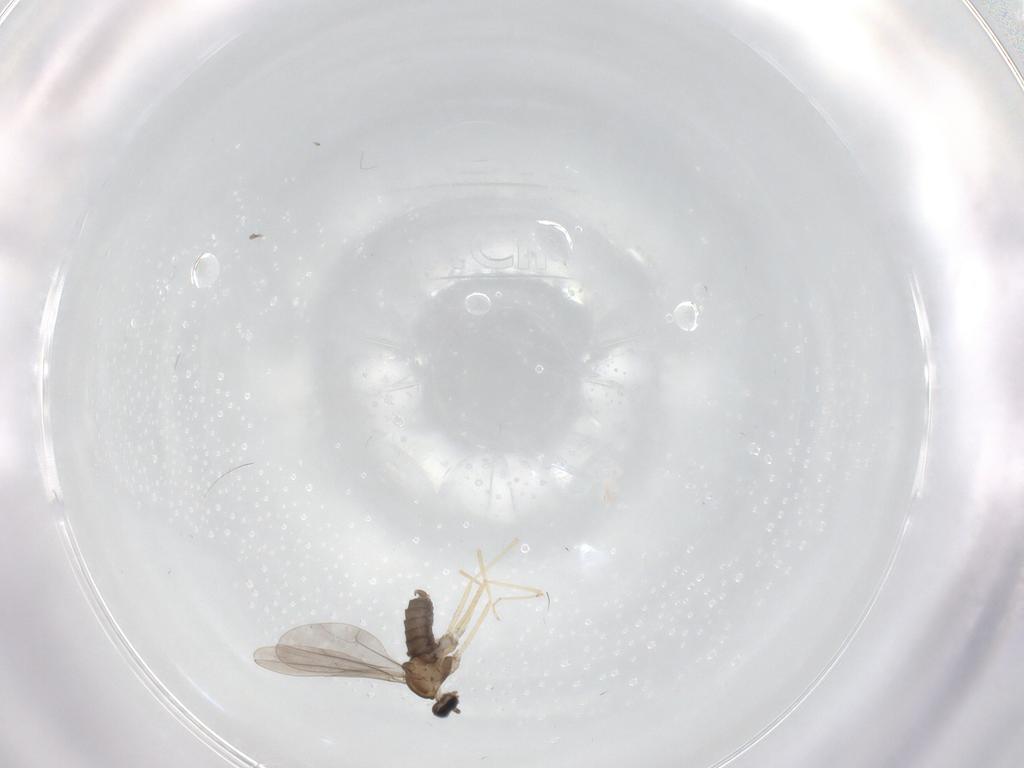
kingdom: Animalia
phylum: Arthropoda
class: Insecta
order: Diptera
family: Cecidomyiidae
